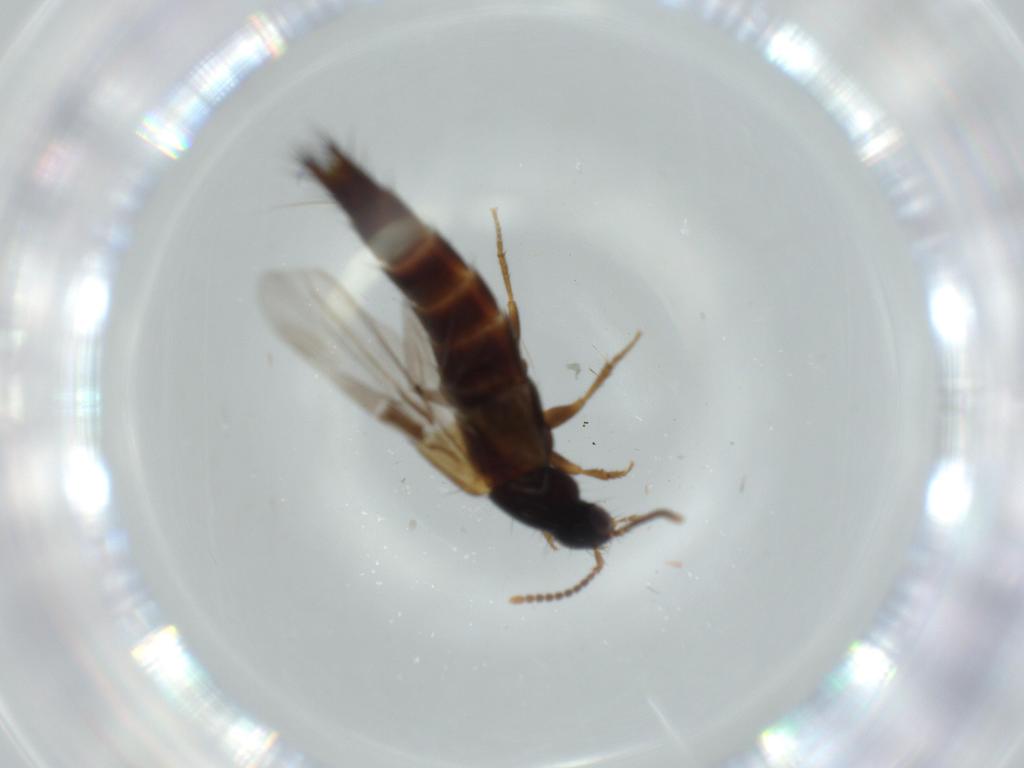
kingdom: Animalia
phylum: Arthropoda
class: Insecta
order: Coleoptera
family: Staphylinidae
